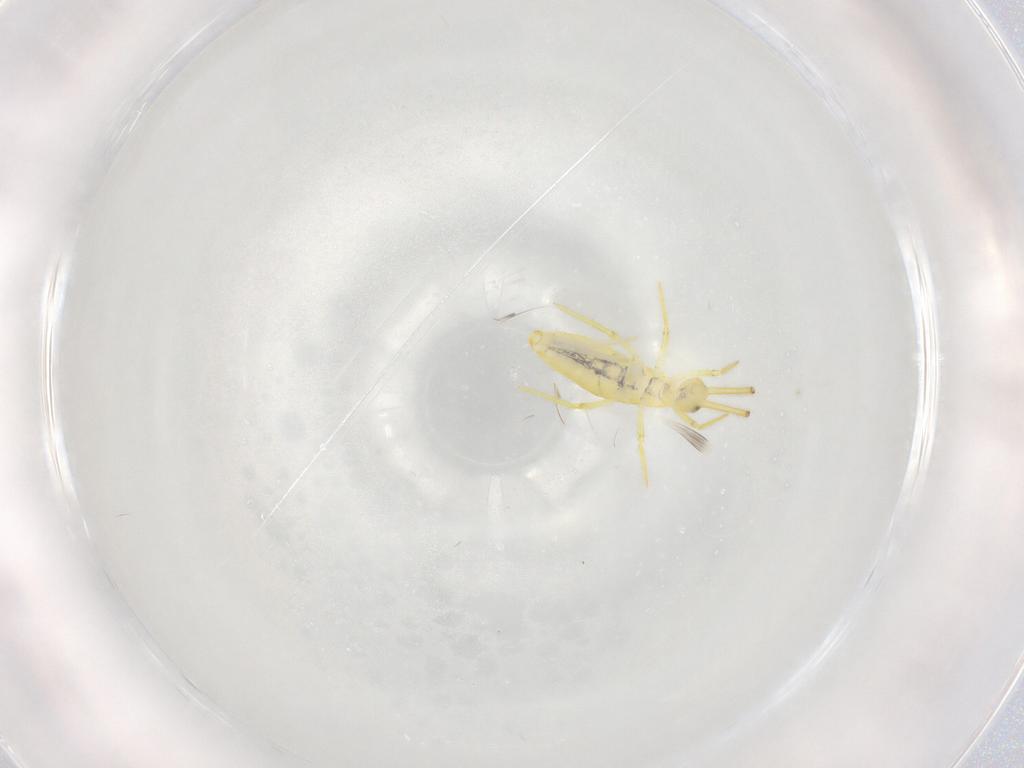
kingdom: Animalia
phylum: Arthropoda
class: Collembola
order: Entomobryomorpha
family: Entomobryidae
